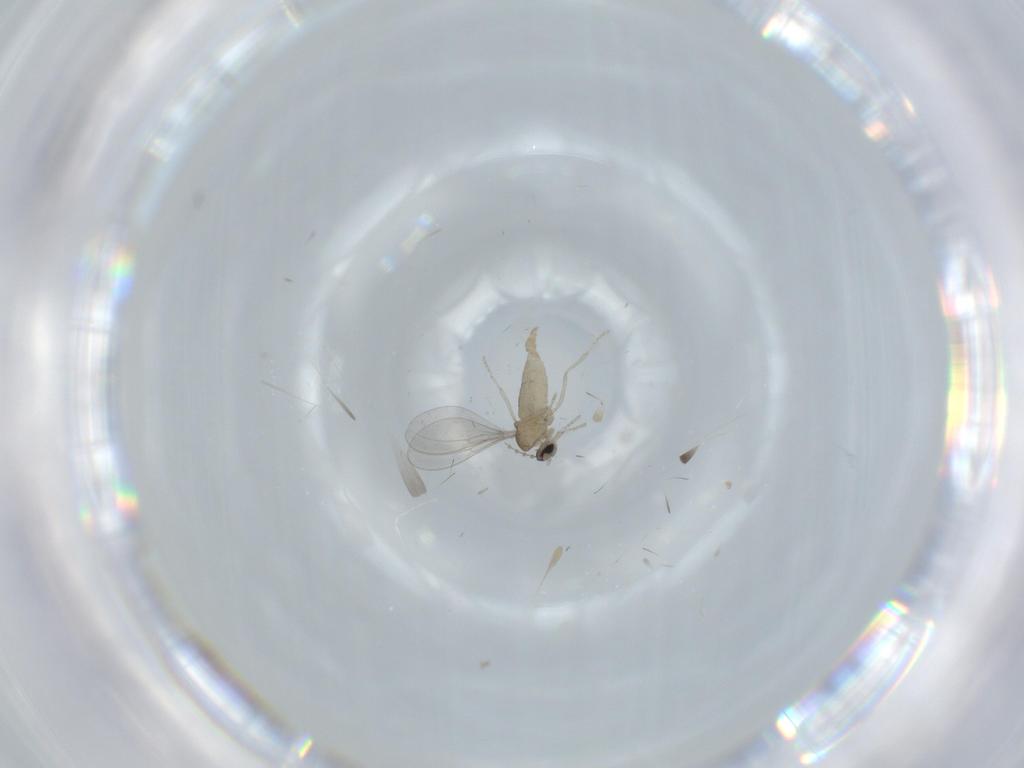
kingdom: Animalia
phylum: Arthropoda
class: Insecta
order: Diptera
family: Cecidomyiidae
